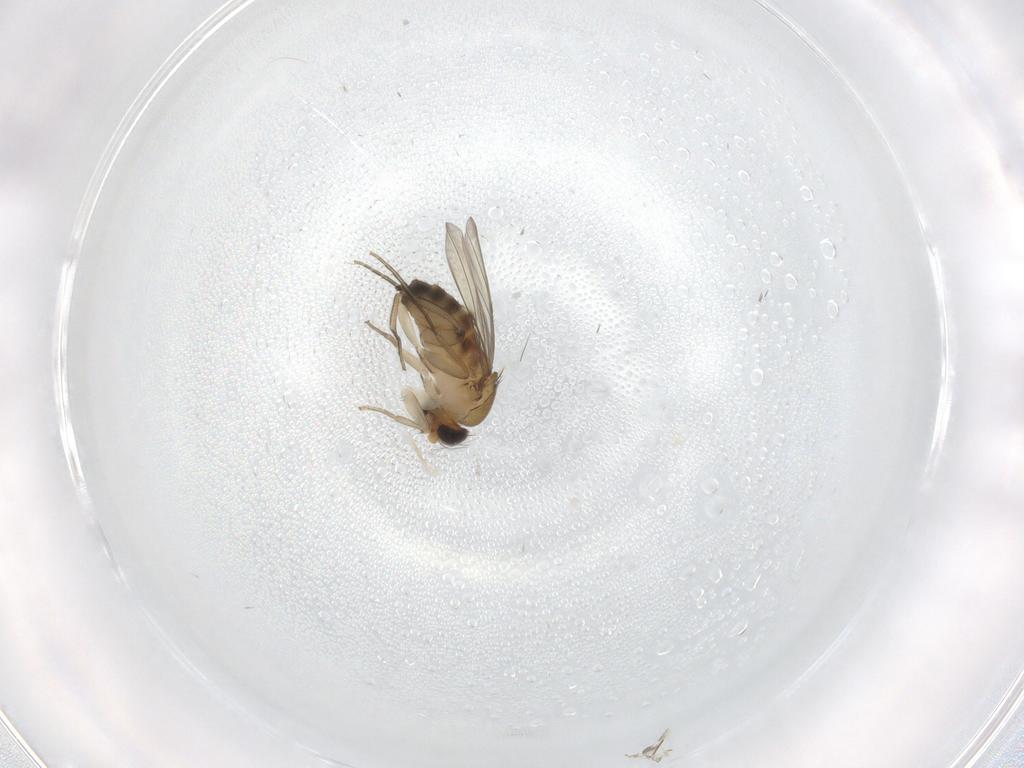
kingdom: Animalia
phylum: Arthropoda
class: Insecta
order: Diptera
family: Phoridae
